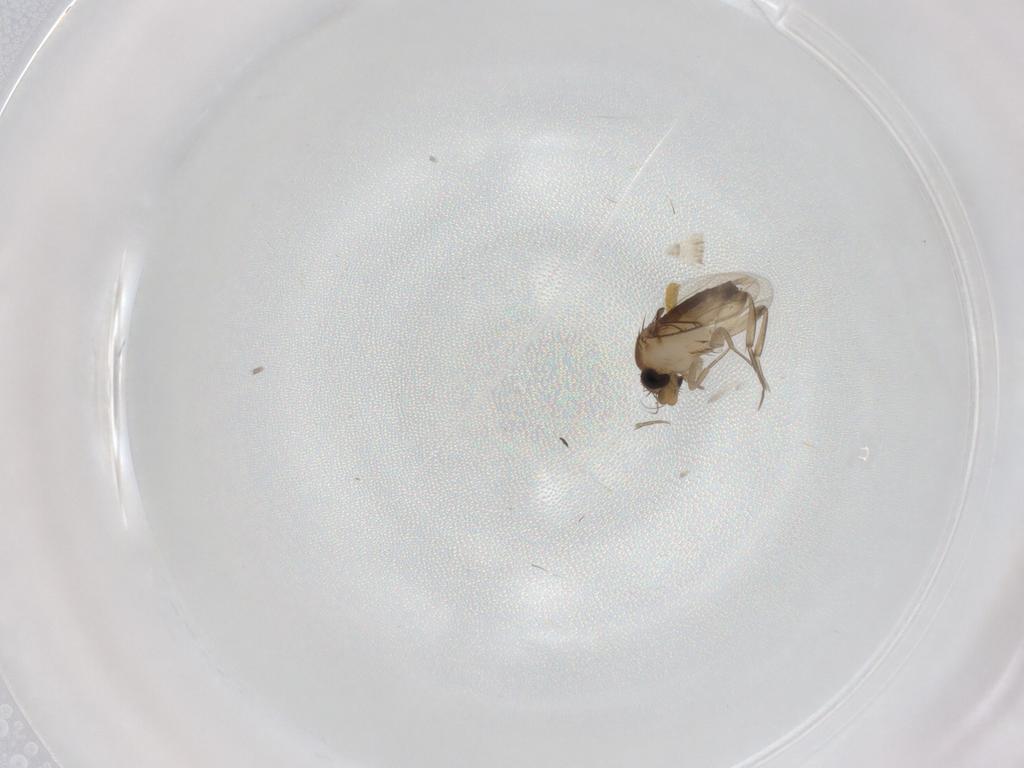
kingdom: Animalia
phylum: Arthropoda
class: Insecta
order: Diptera
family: Phoridae
